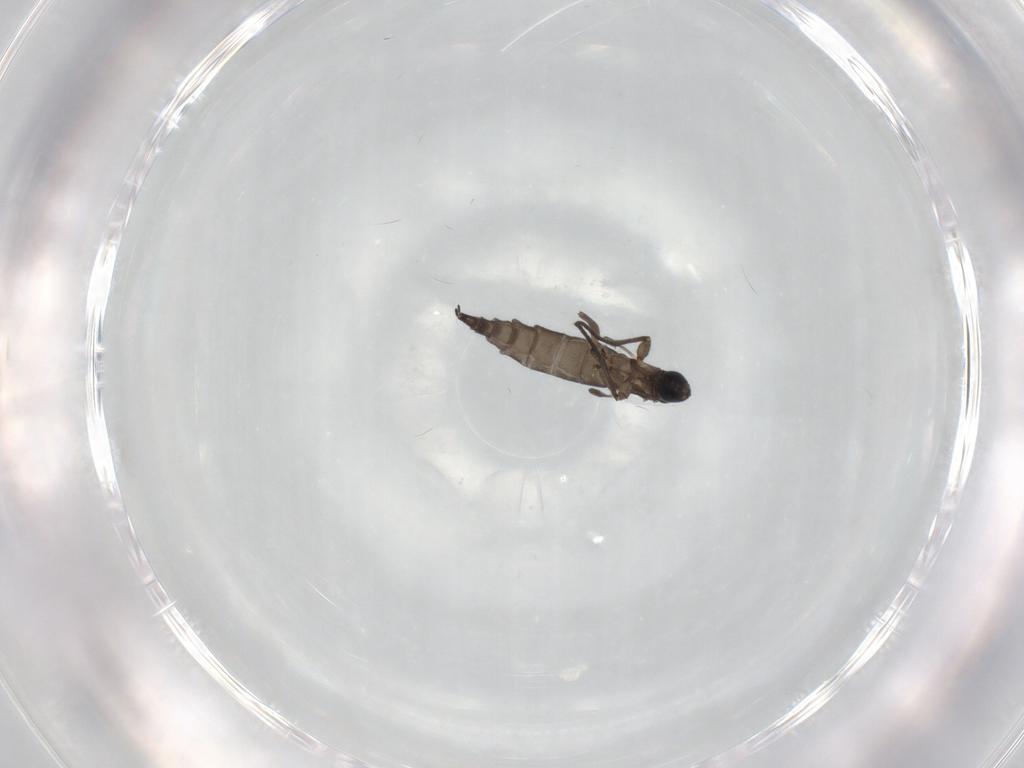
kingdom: Animalia
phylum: Arthropoda
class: Insecta
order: Diptera
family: Sciaridae
